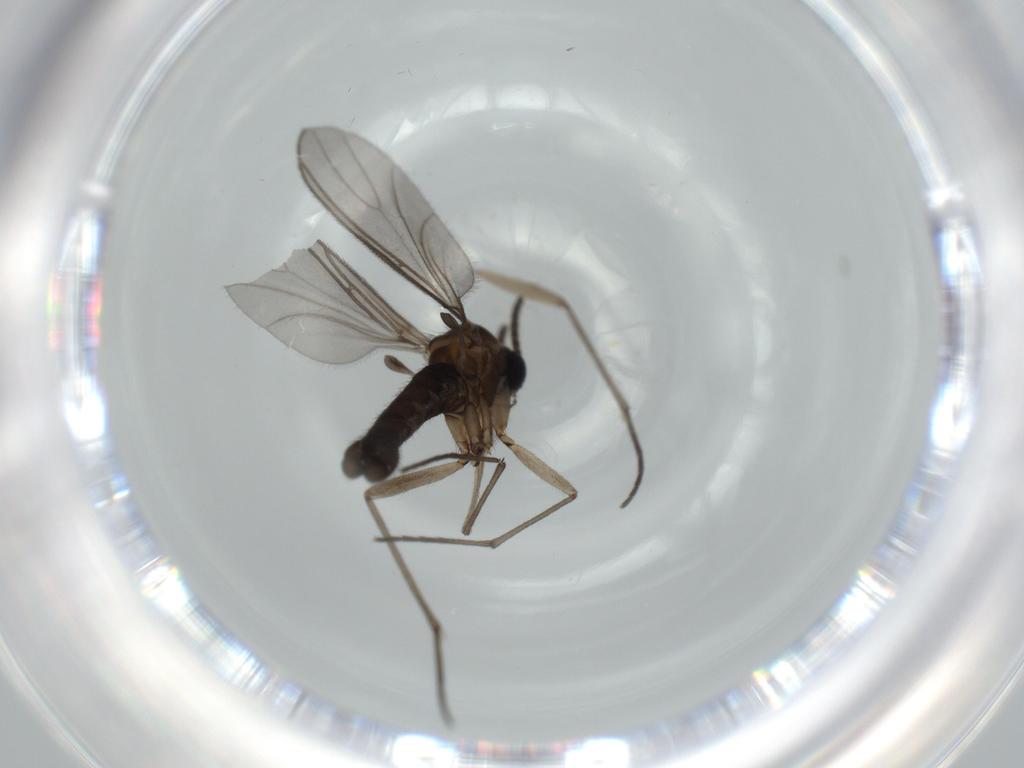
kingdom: Animalia
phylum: Arthropoda
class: Insecta
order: Diptera
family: Sciaridae
